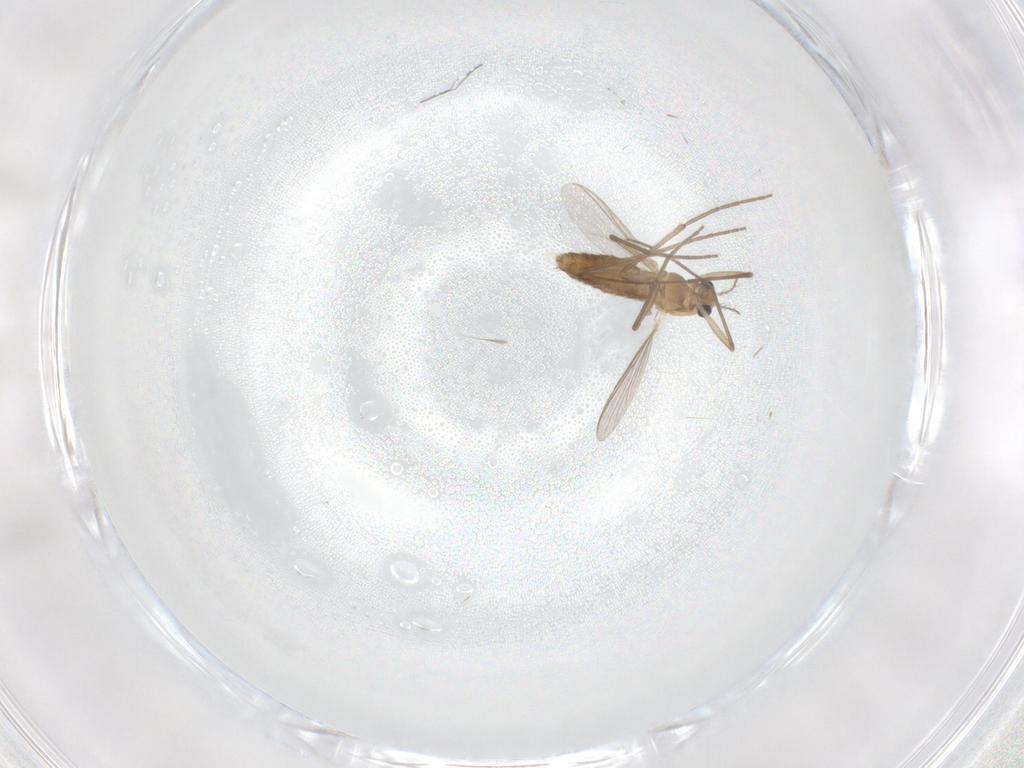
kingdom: Animalia
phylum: Arthropoda
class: Insecta
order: Diptera
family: Chironomidae
